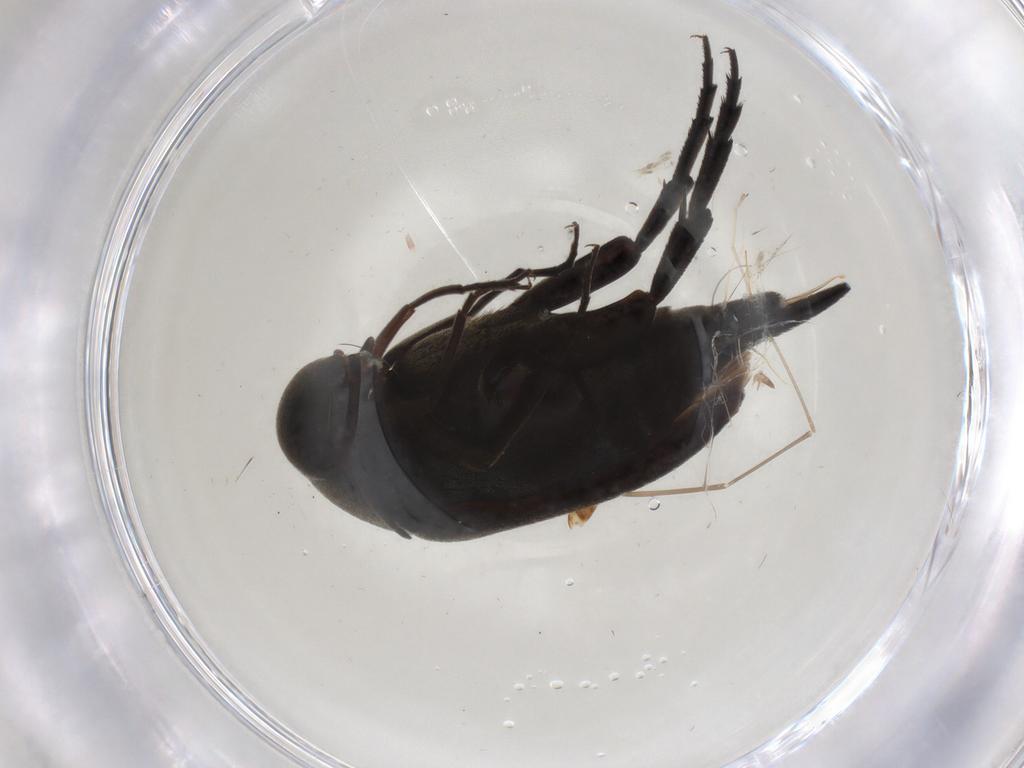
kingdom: Animalia
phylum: Arthropoda
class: Insecta
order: Coleoptera
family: Mordellidae
